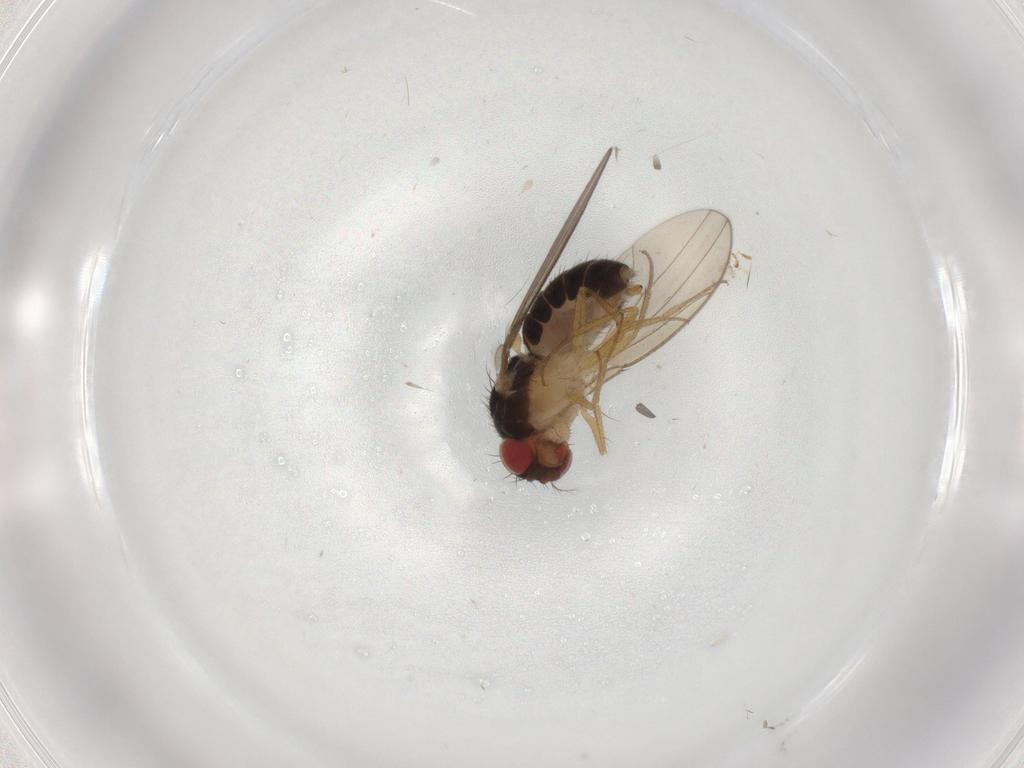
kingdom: Animalia
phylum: Arthropoda
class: Insecta
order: Diptera
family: Drosophilidae
